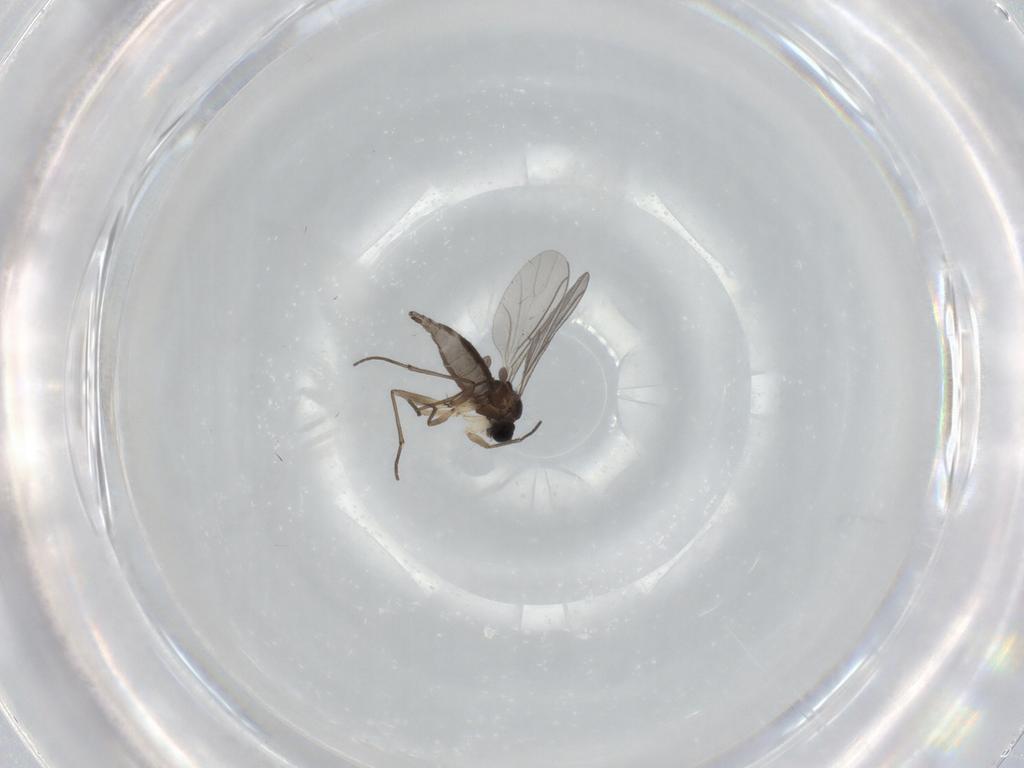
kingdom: Animalia
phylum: Arthropoda
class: Insecta
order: Diptera
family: Sciaridae
